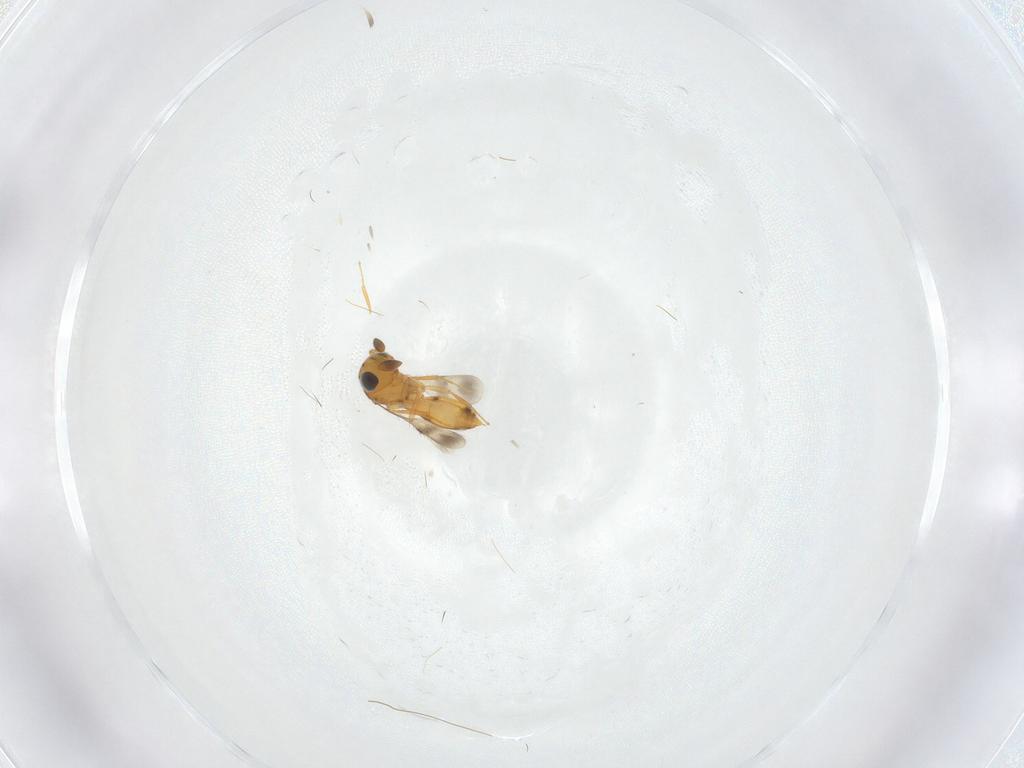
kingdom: Animalia
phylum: Arthropoda
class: Insecta
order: Hymenoptera
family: Scelionidae
